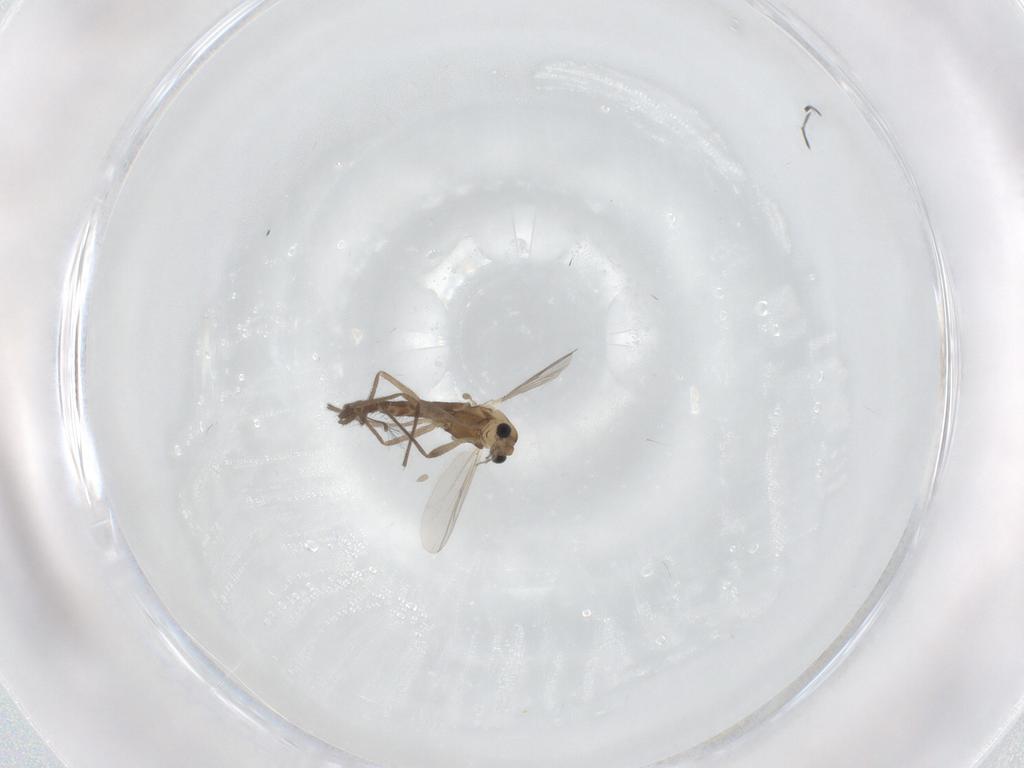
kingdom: Animalia
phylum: Arthropoda
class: Insecta
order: Diptera
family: Chironomidae
